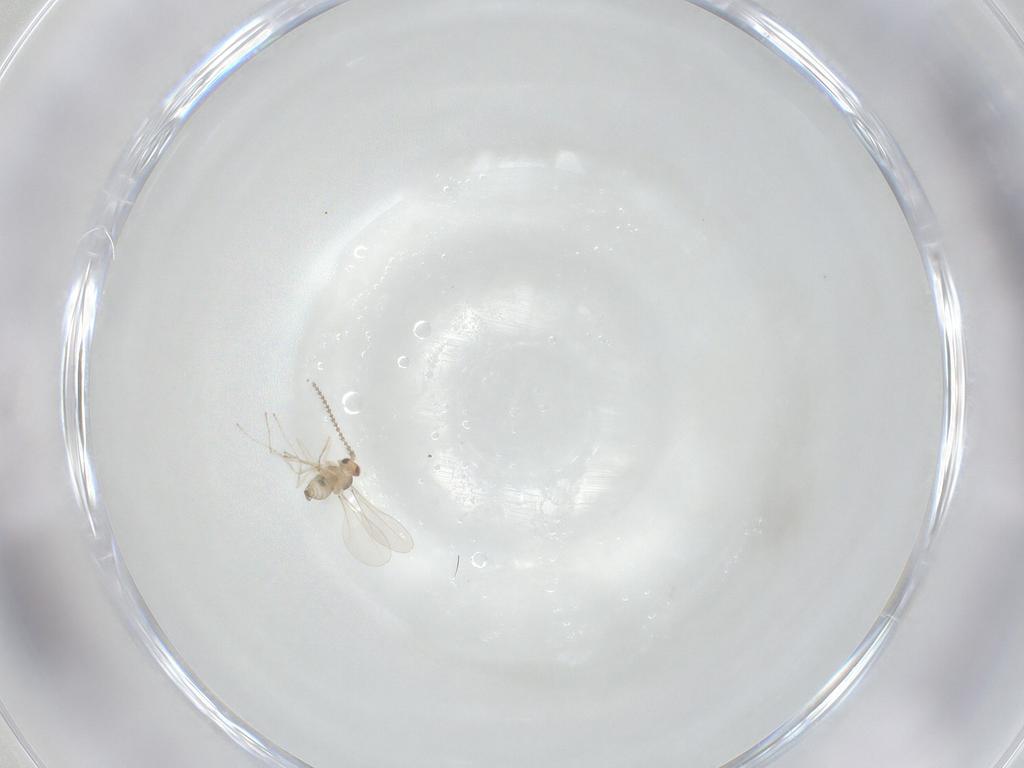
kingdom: Animalia
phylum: Arthropoda
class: Insecta
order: Diptera
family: Cecidomyiidae
